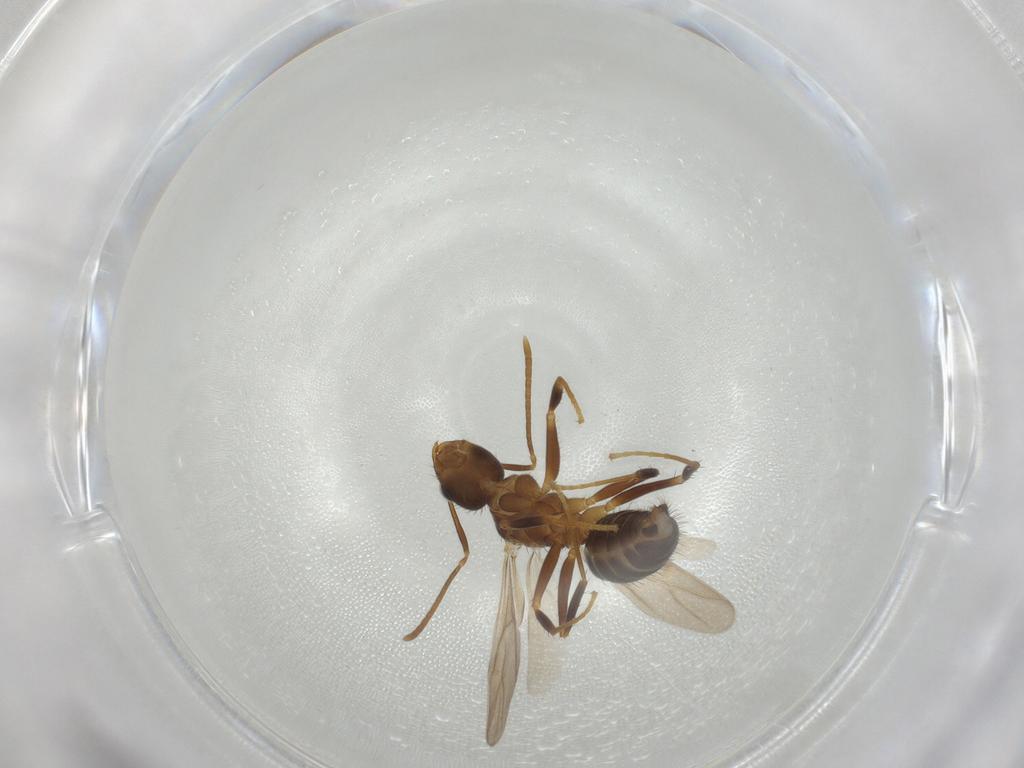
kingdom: Animalia
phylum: Arthropoda
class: Insecta
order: Hymenoptera
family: Formicidae
